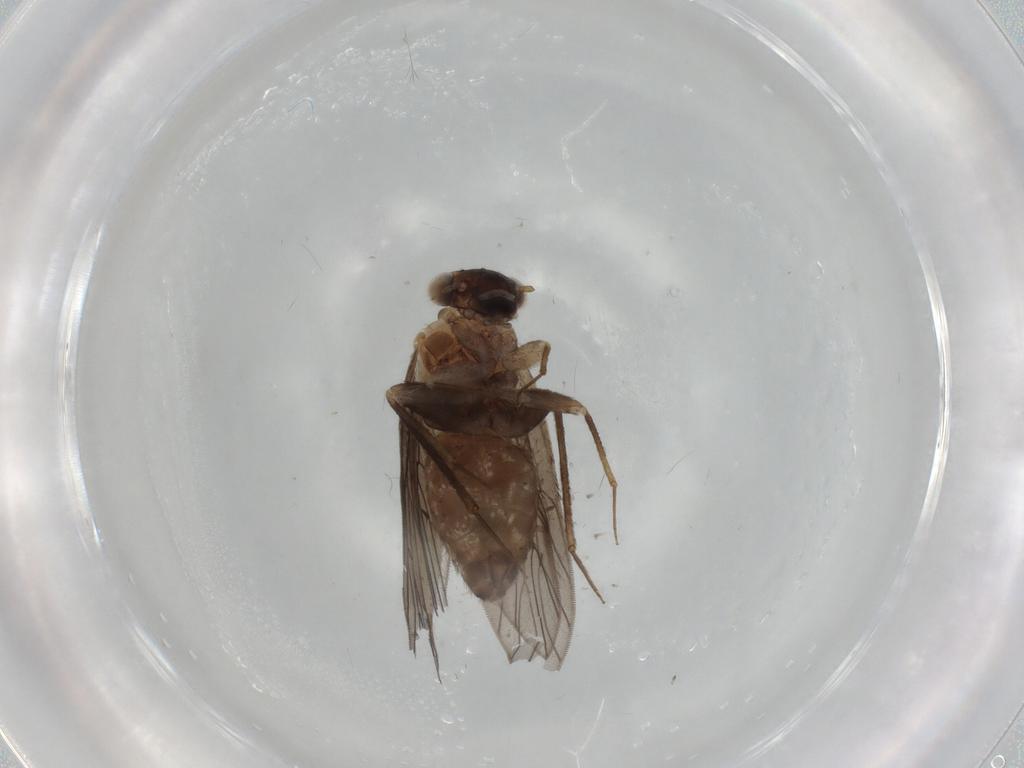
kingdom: Animalia
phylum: Arthropoda
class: Insecta
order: Psocodea
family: Lepidopsocidae
